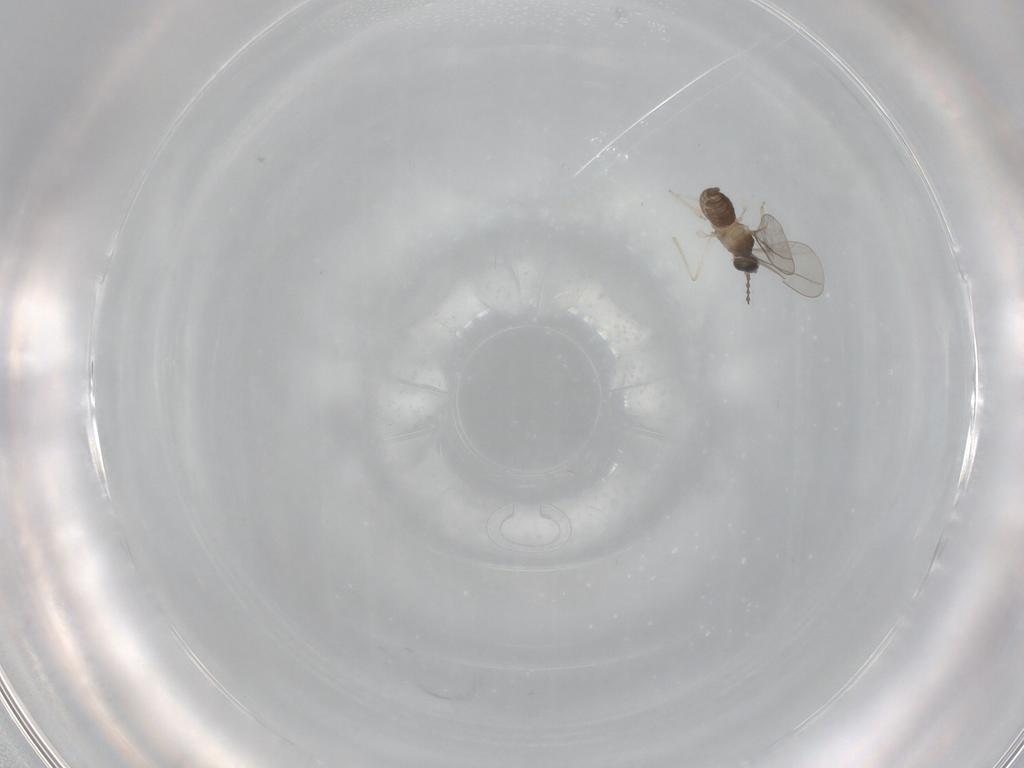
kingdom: Animalia
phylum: Arthropoda
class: Insecta
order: Diptera
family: Cecidomyiidae
